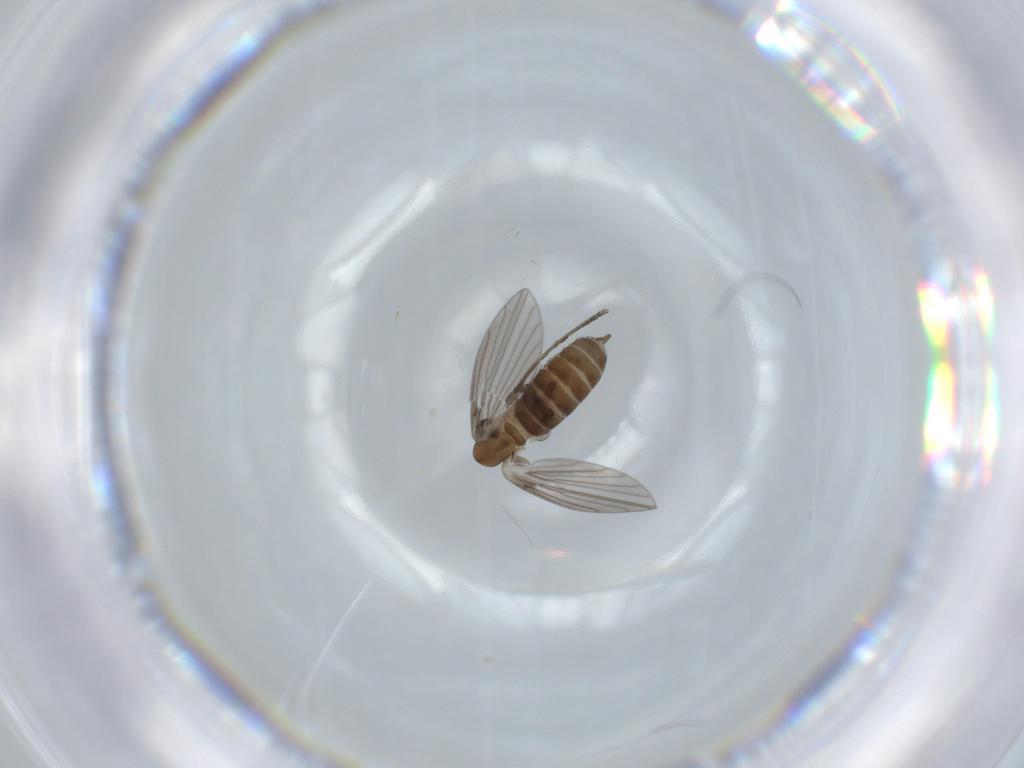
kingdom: Animalia
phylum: Arthropoda
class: Insecta
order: Diptera
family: Psychodidae
